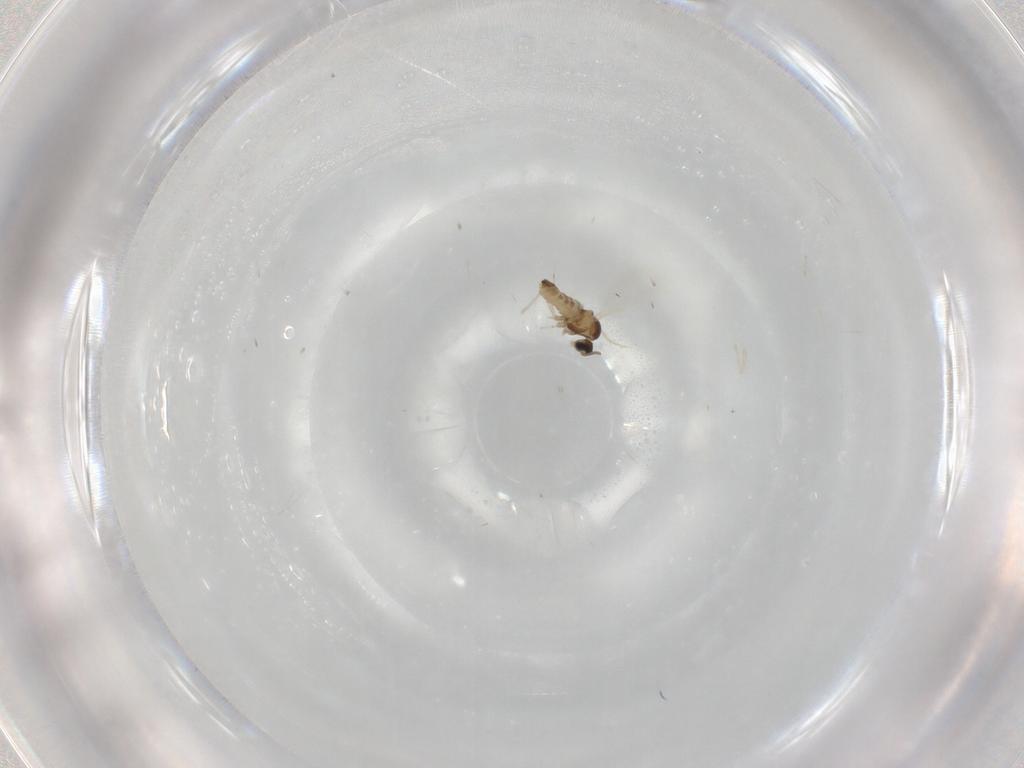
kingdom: Animalia
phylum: Arthropoda
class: Insecta
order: Diptera
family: Cecidomyiidae
